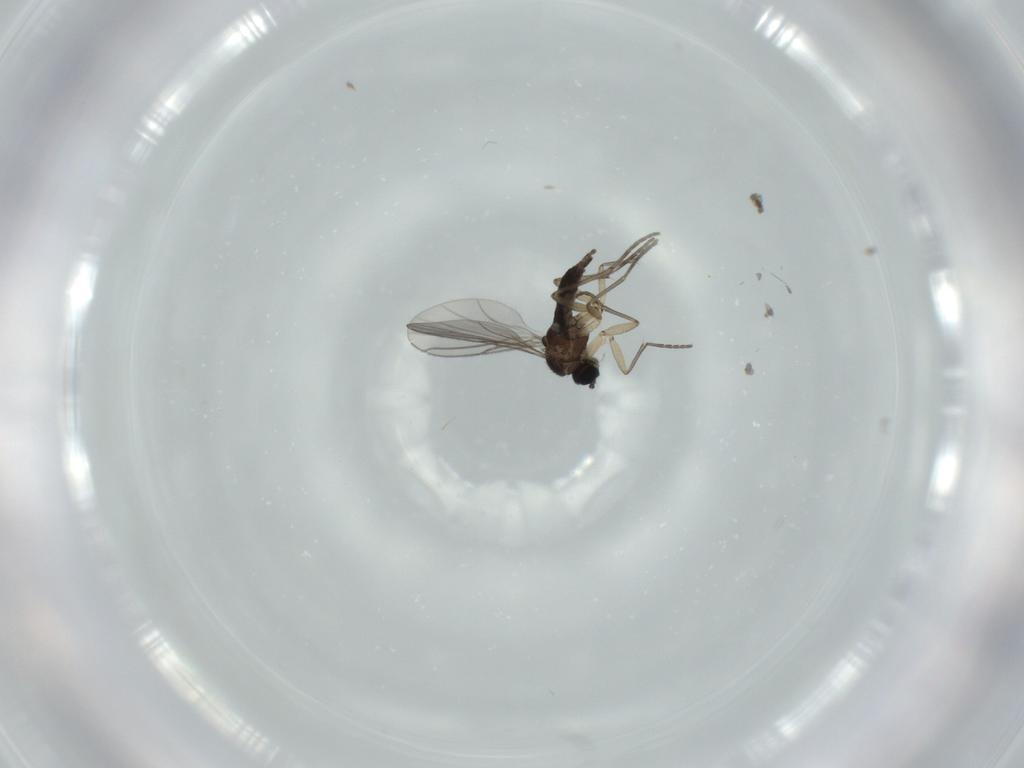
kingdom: Animalia
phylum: Arthropoda
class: Insecta
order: Diptera
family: Sciaridae
